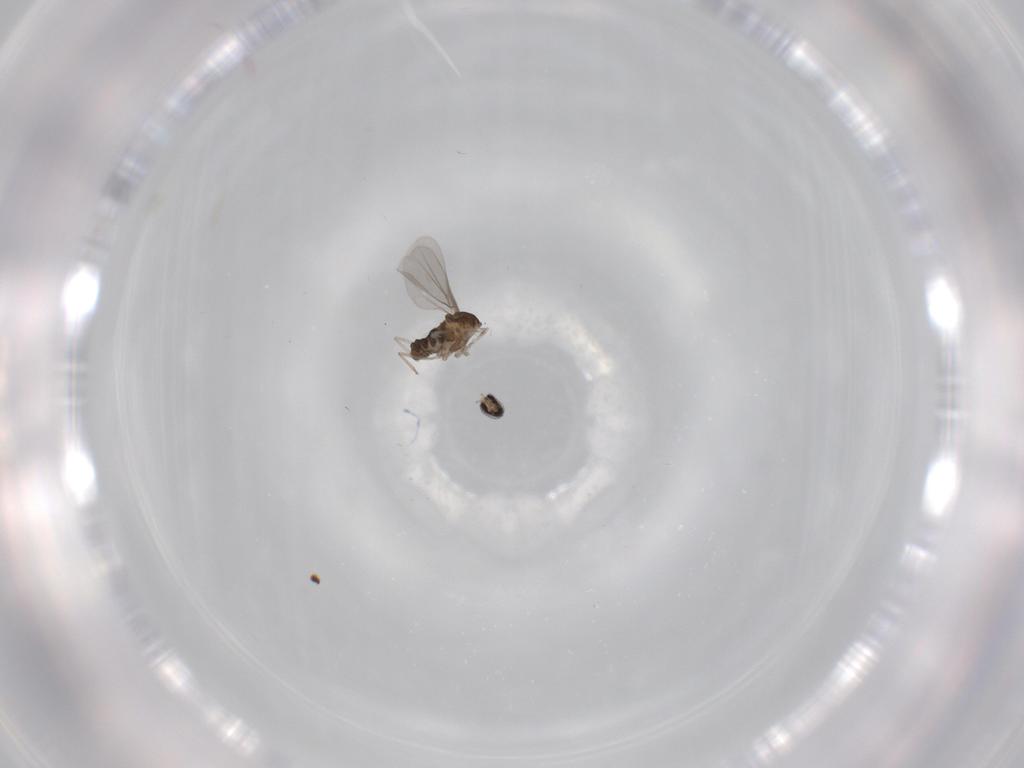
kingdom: Animalia
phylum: Arthropoda
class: Insecta
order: Diptera
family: Cecidomyiidae
